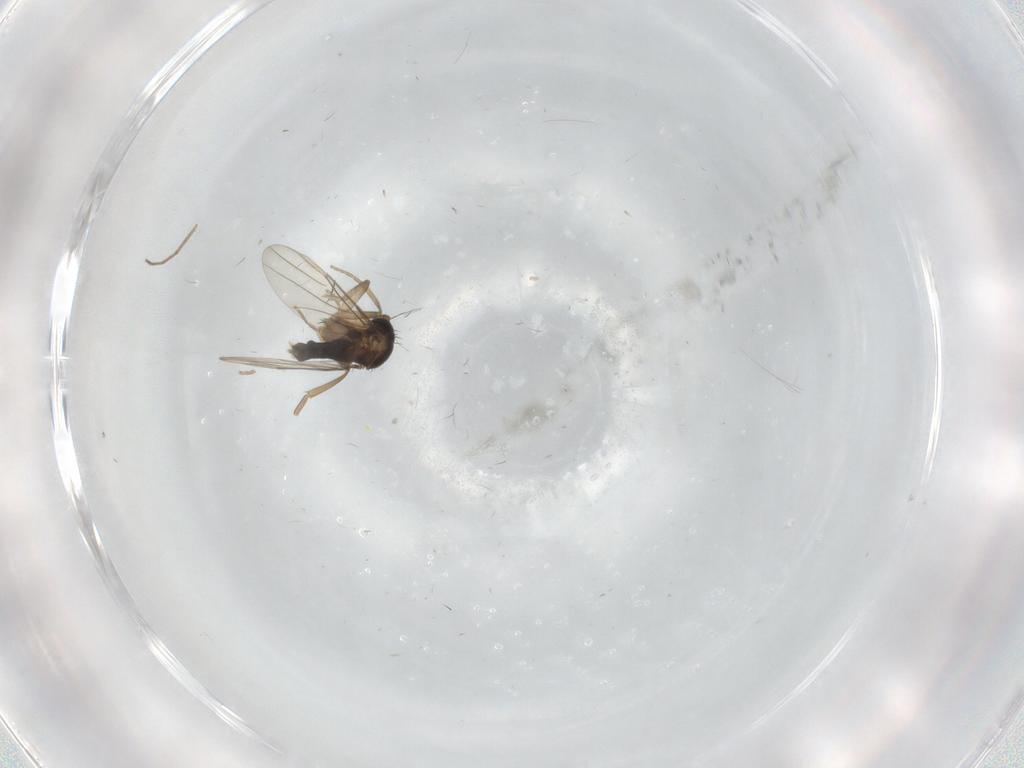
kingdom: Animalia
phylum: Arthropoda
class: Insecta
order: Diptera
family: Chironomidae
